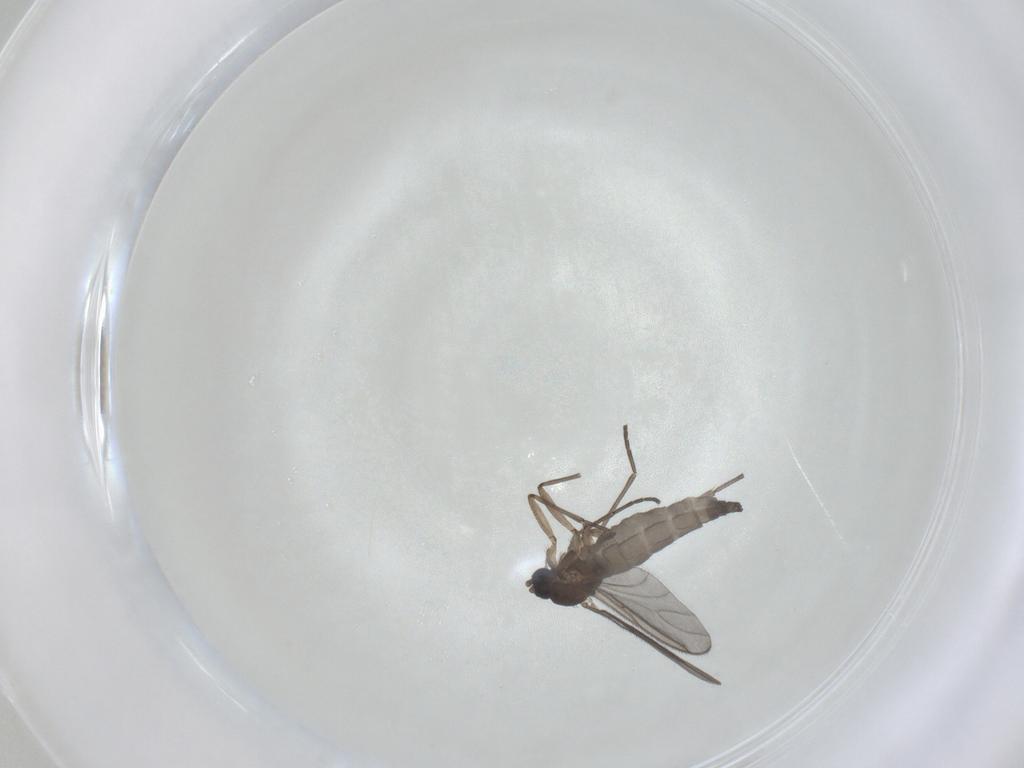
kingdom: Animalia
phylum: Arthropoda
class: Insecta
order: Diptera
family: Sciaridae
